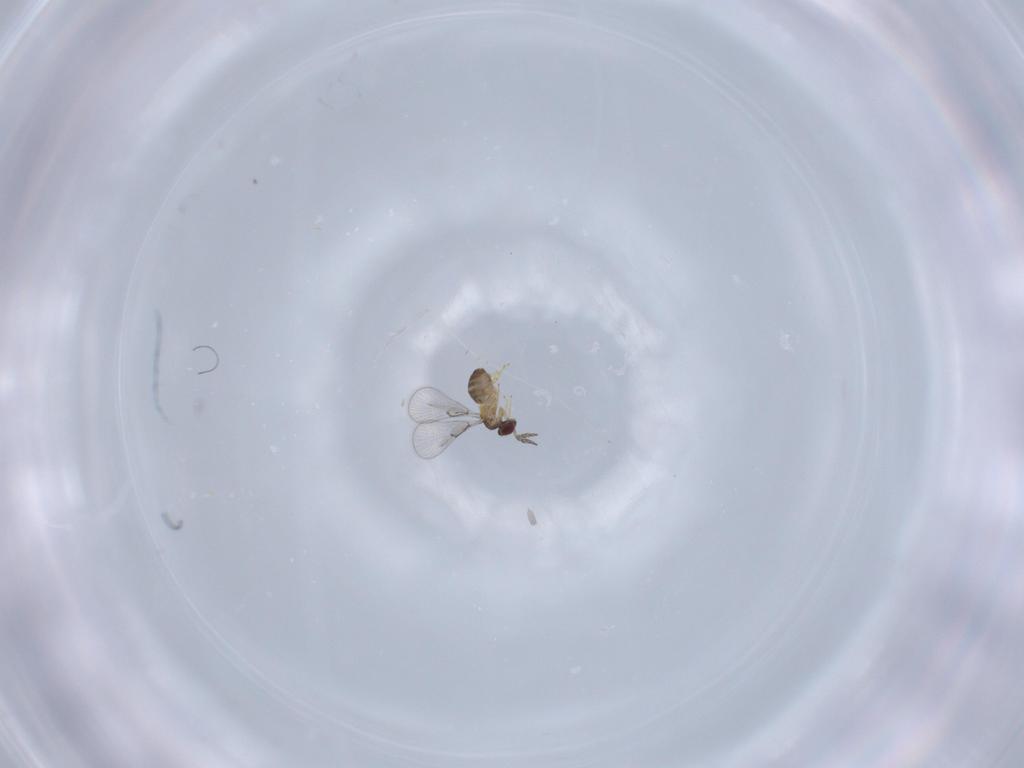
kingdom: Animalia
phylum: Arthropoda
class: Insecta
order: Hymenoptera
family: Trichogrammatidae
